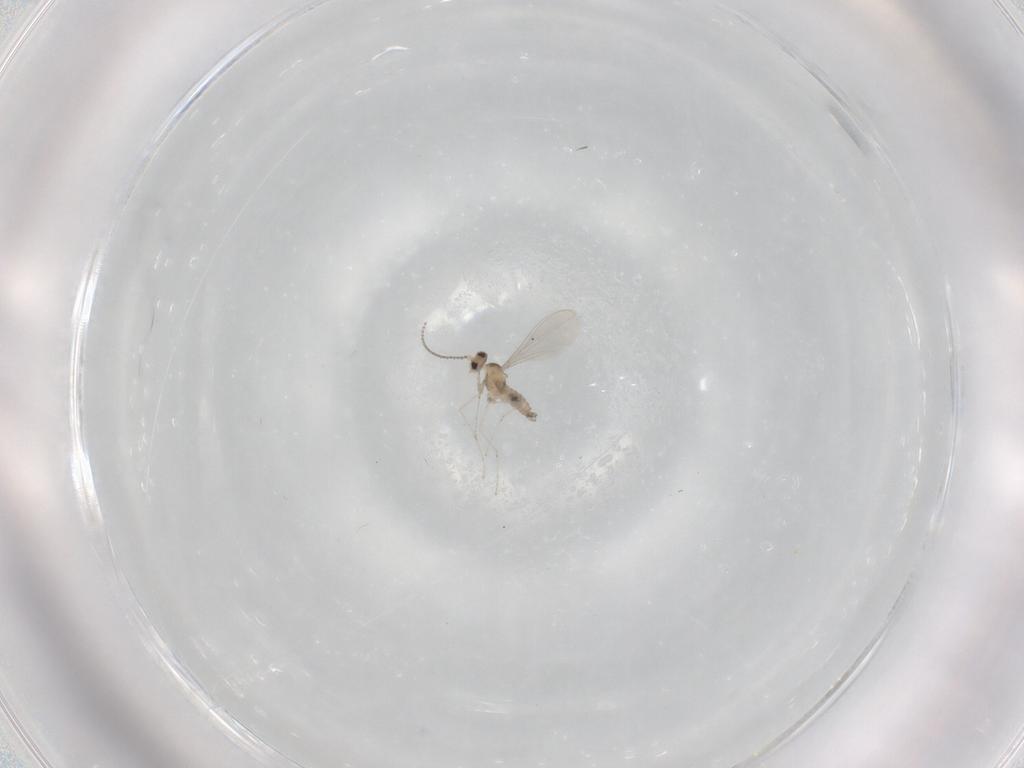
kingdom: Animalia
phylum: Arthropoda
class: Insecta
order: Diptera
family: Cecidomyiidae
